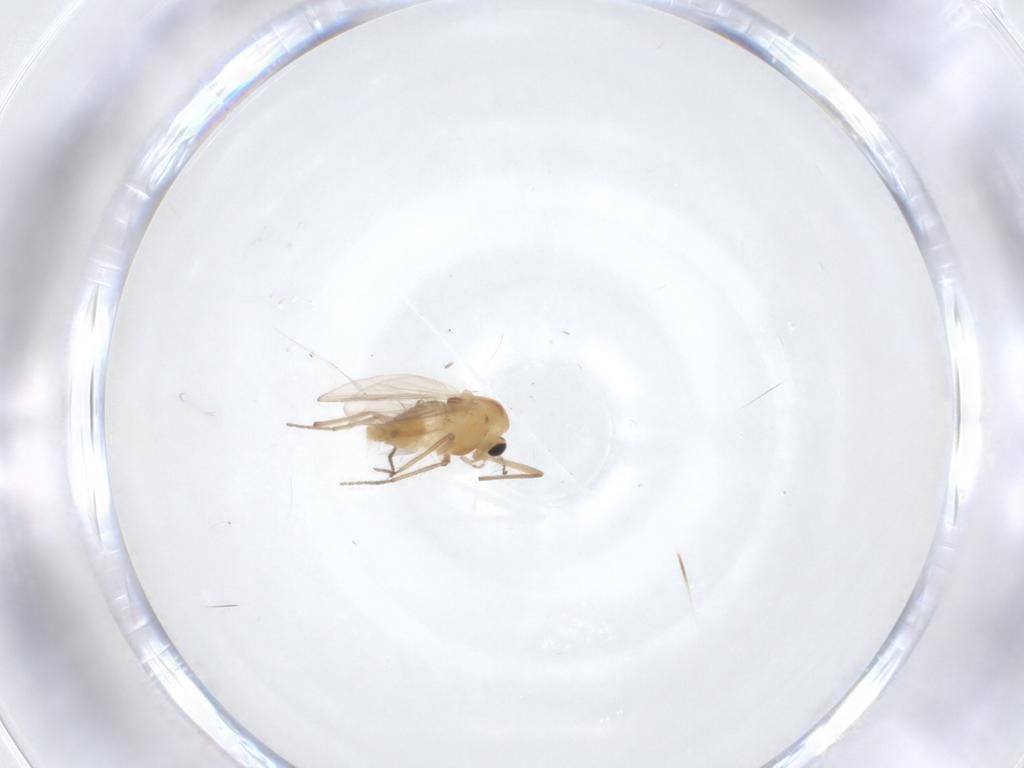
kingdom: Animalia
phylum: Arthropoda
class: Insecta
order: Diptera
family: Chironomidae
